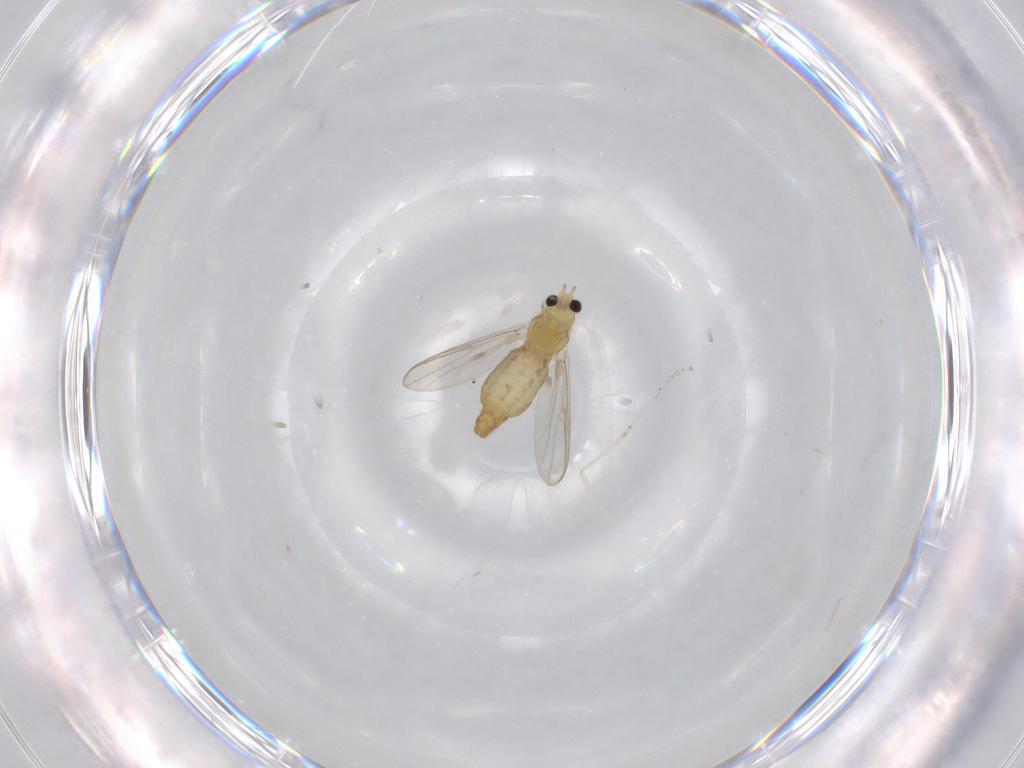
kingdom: Animalia
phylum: Arthropoda
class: Insecta
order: Diptera
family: Chironomidae
